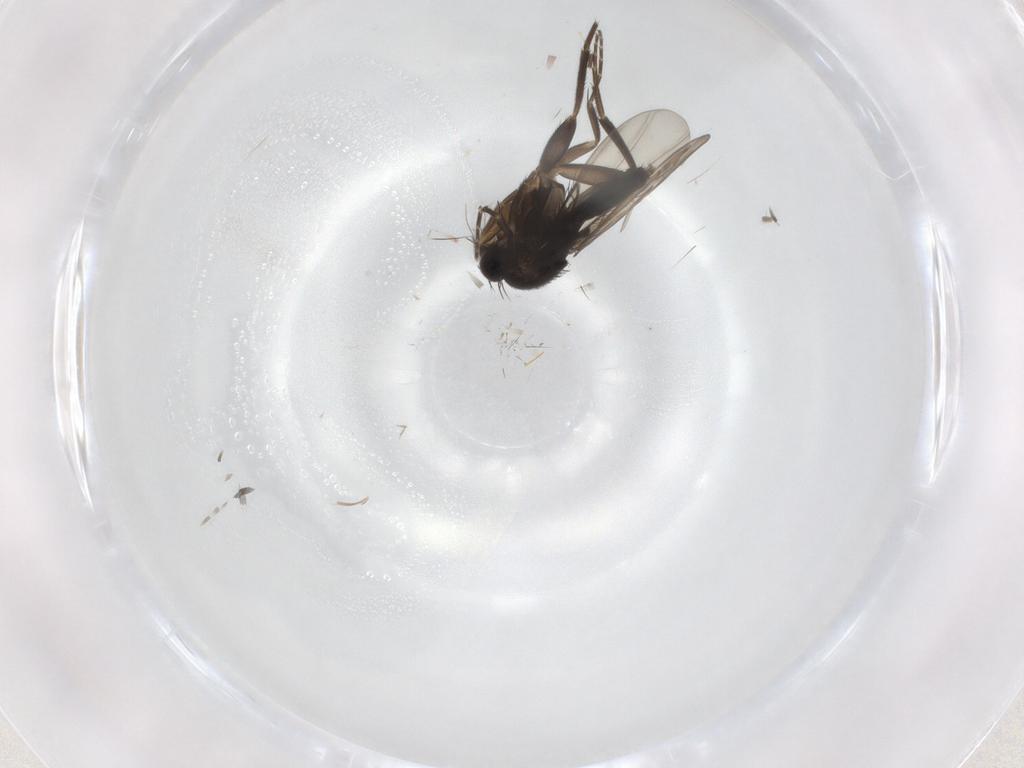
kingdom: Animalia
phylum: Arthropoda
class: Insecta
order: Diptera
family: Phoridae
